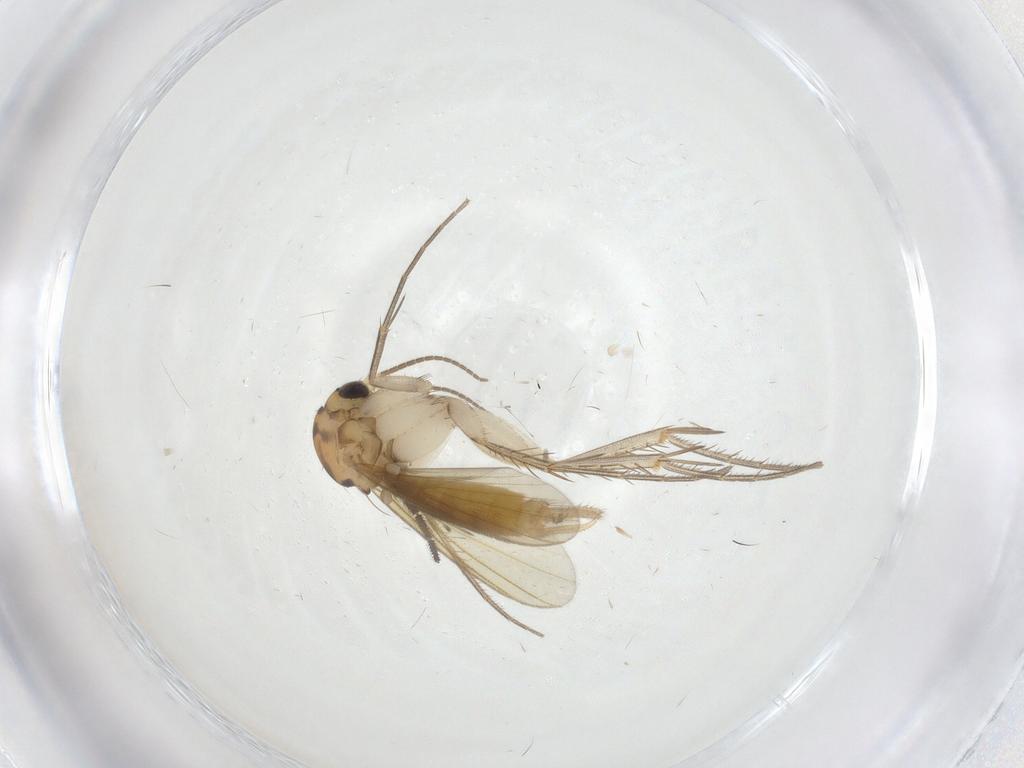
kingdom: Animalia
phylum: Arthropoda
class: Insecta
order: Diptera
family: Mycetophilidae
